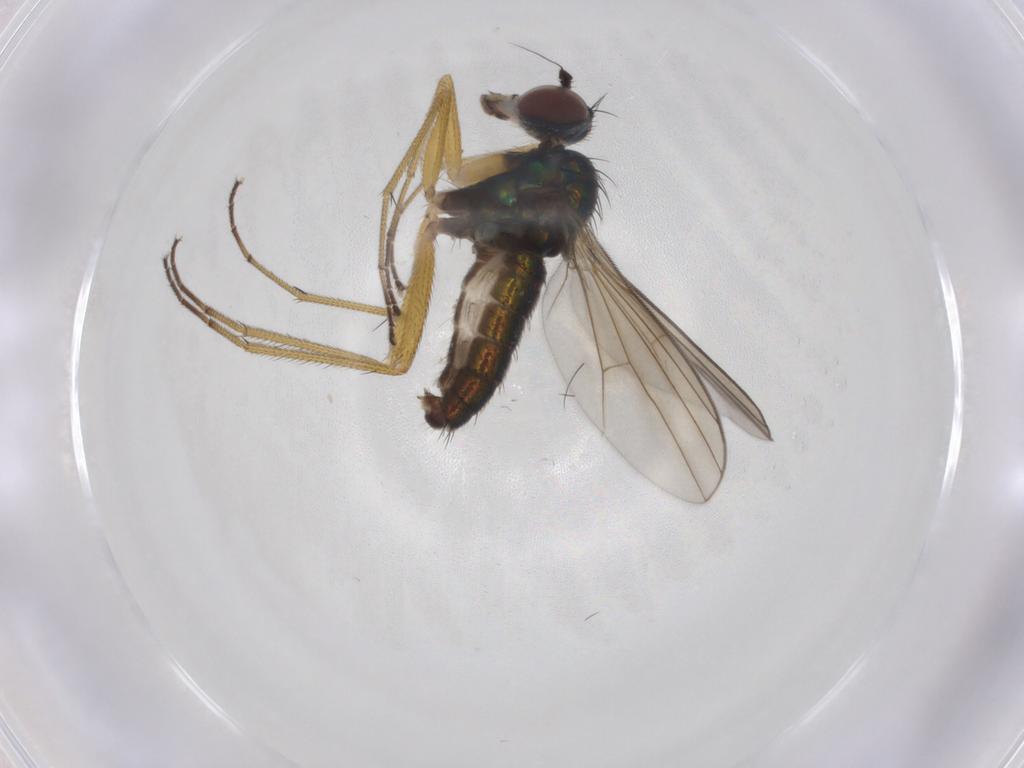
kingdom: Animalia
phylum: Arthropoda
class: Insecta
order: Diptera
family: Dolichopodidae
